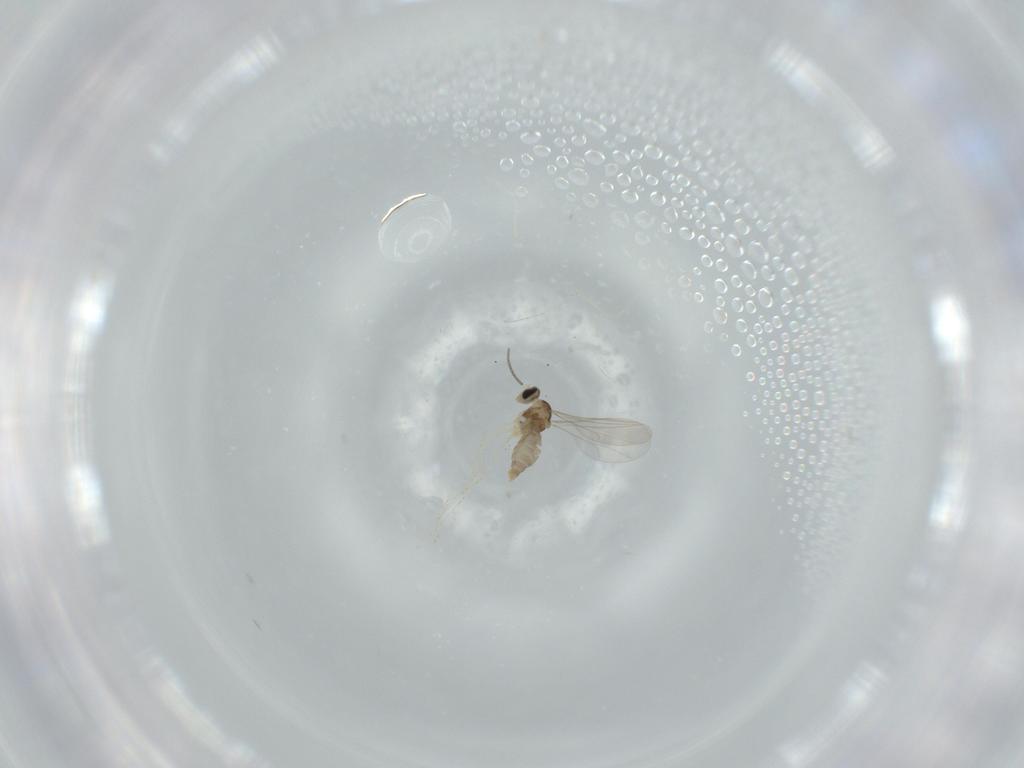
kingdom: Animalia
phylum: Arthropoda
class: Insecta
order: Diptera
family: Cecidomyiidae
